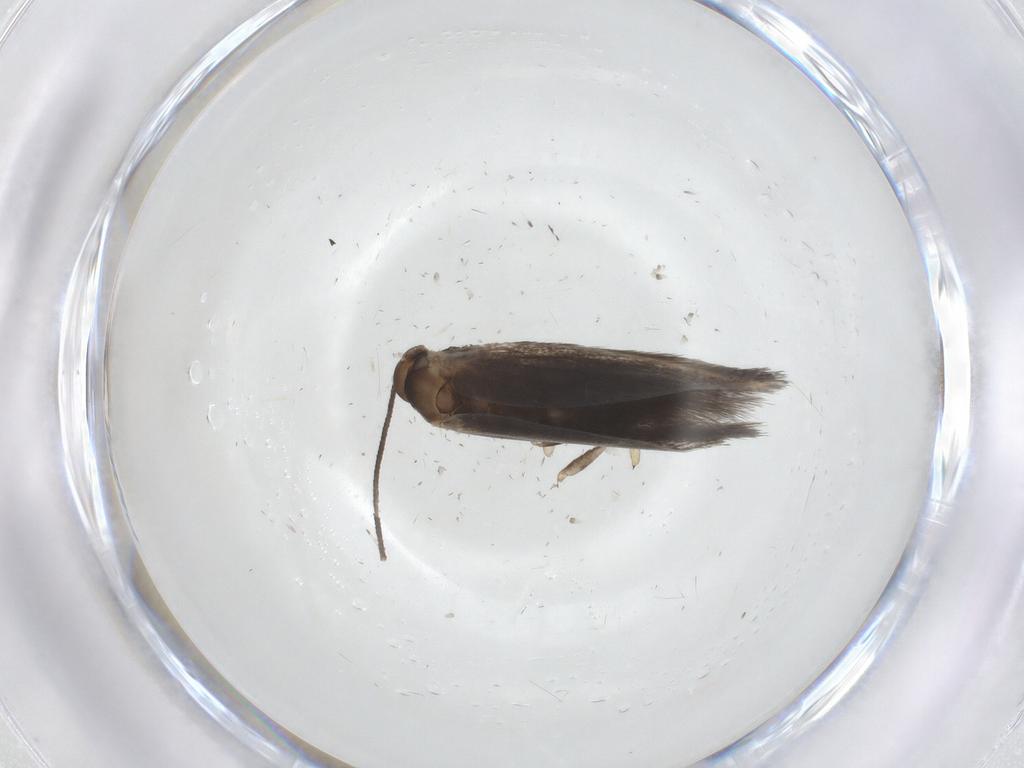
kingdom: Animalia
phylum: Arthropoda
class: Insecta
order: Lepidoptera
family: Elachistidae
